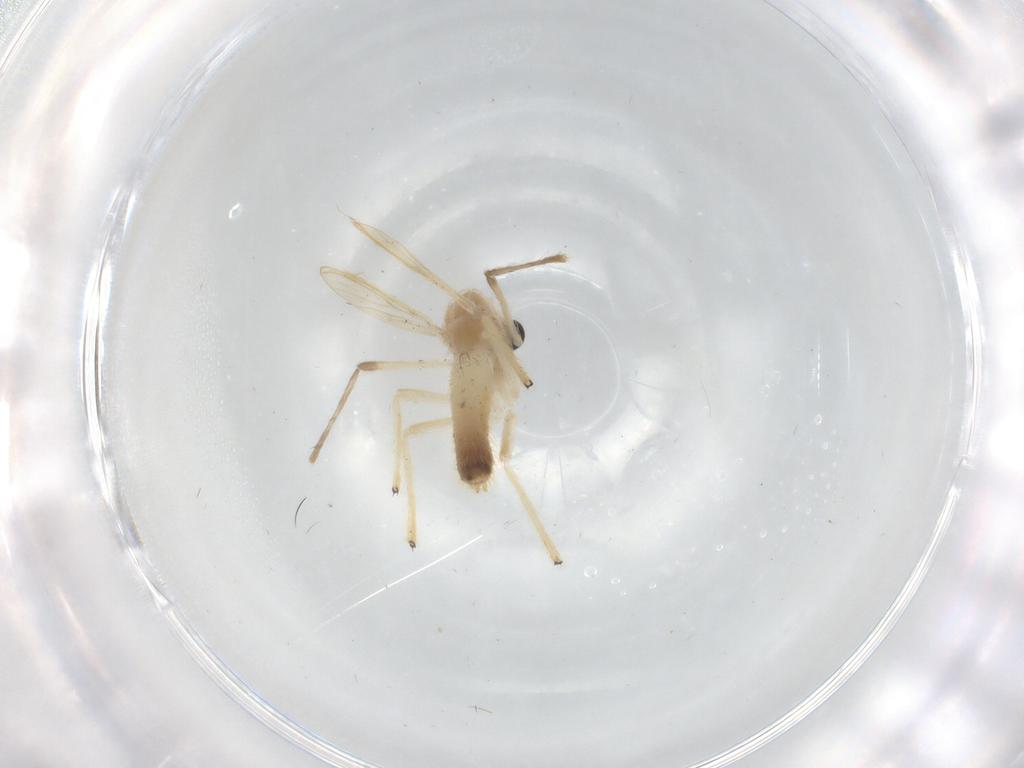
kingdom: Animalia
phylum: Arthropoda
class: Insecta
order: Diptera
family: Chironomidae
